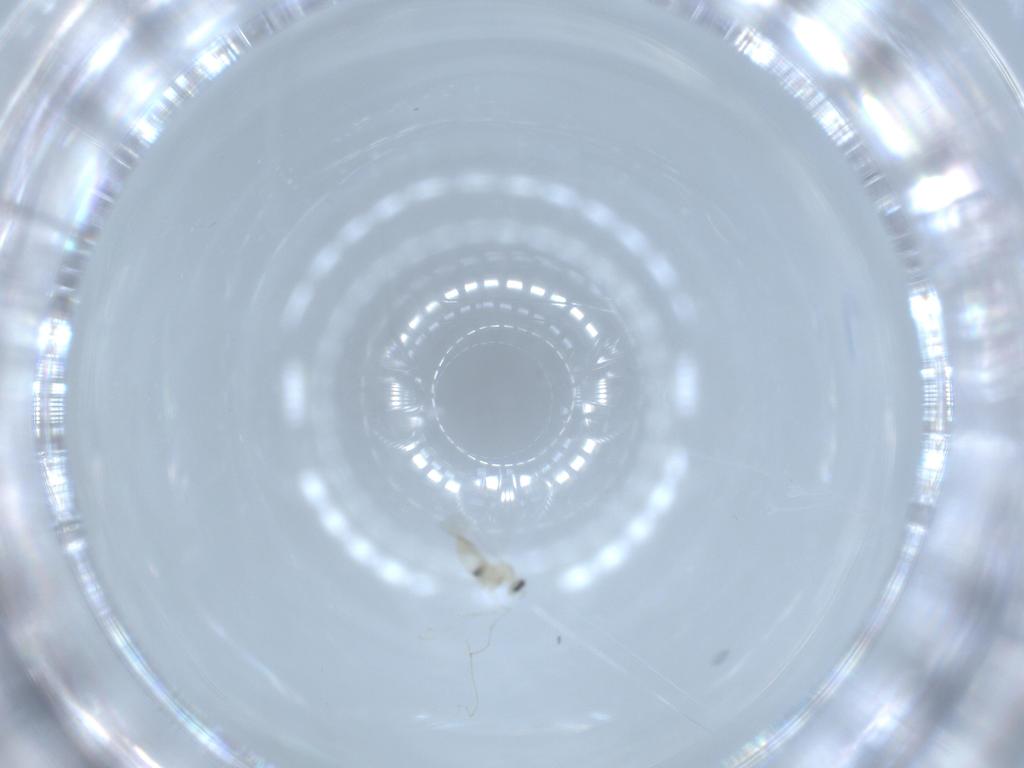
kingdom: Animalia
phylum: Arthropoda
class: Insecta
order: Diptera
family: Cecidomyiidae
